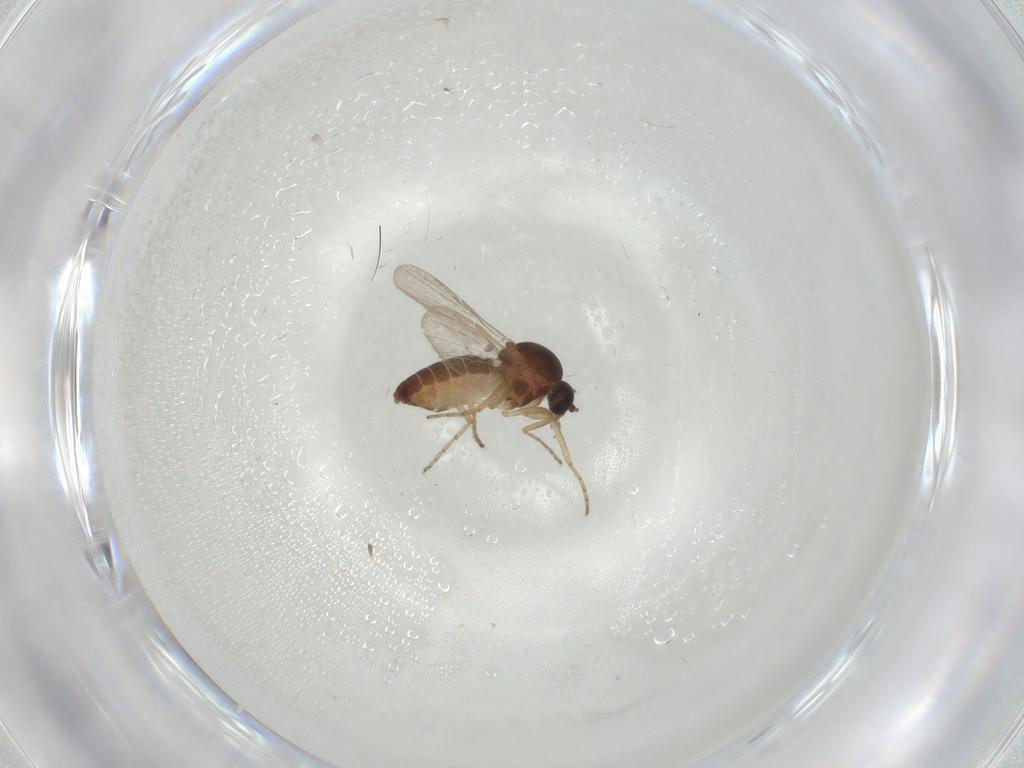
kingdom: Animalia
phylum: Arthropoda
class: Insecta
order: Diptera
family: Ceratopogonidae
